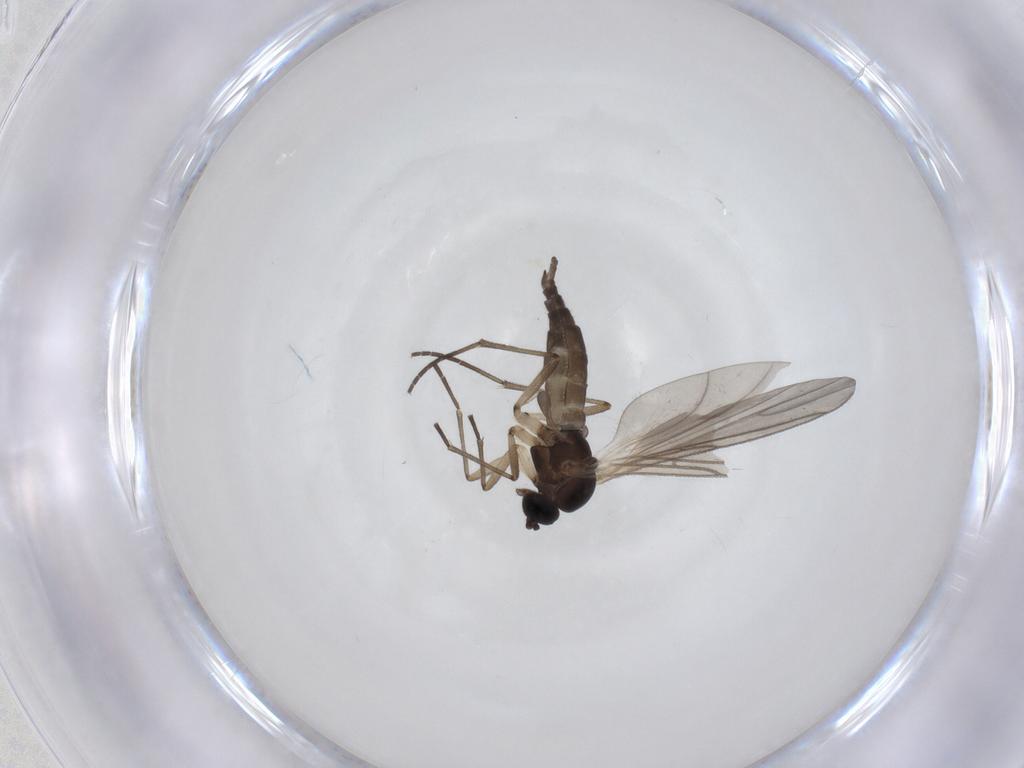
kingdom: Animalia
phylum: Arthropoda
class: Insecta
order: Diptera
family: Sciaridae
